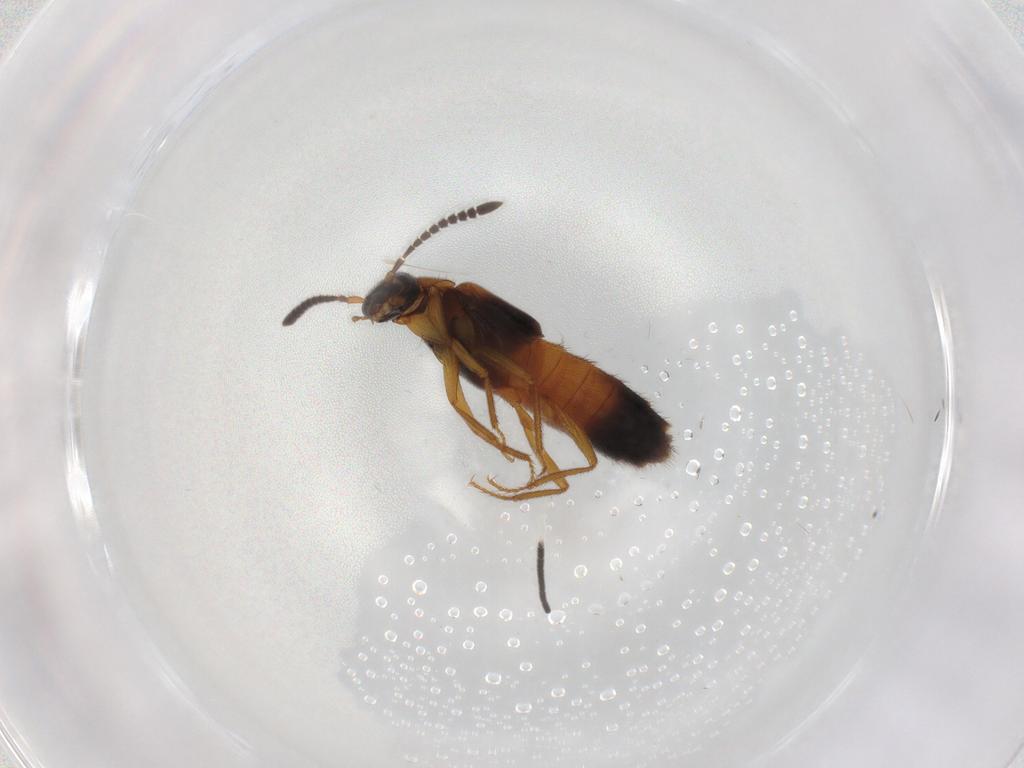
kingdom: Animalia
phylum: Arthropoda
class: Insecta
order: Coleoptera
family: Staphylinidae
